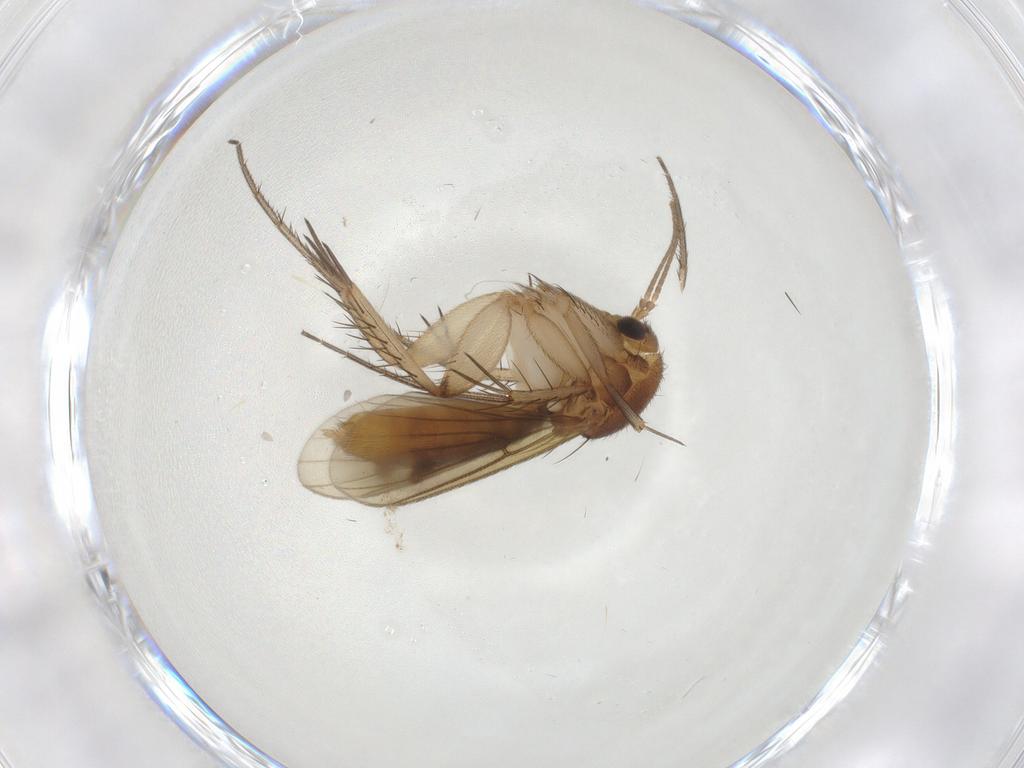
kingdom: Animalia
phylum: Arthropoda
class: Insecta
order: Diptera
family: Mycetophilidae
